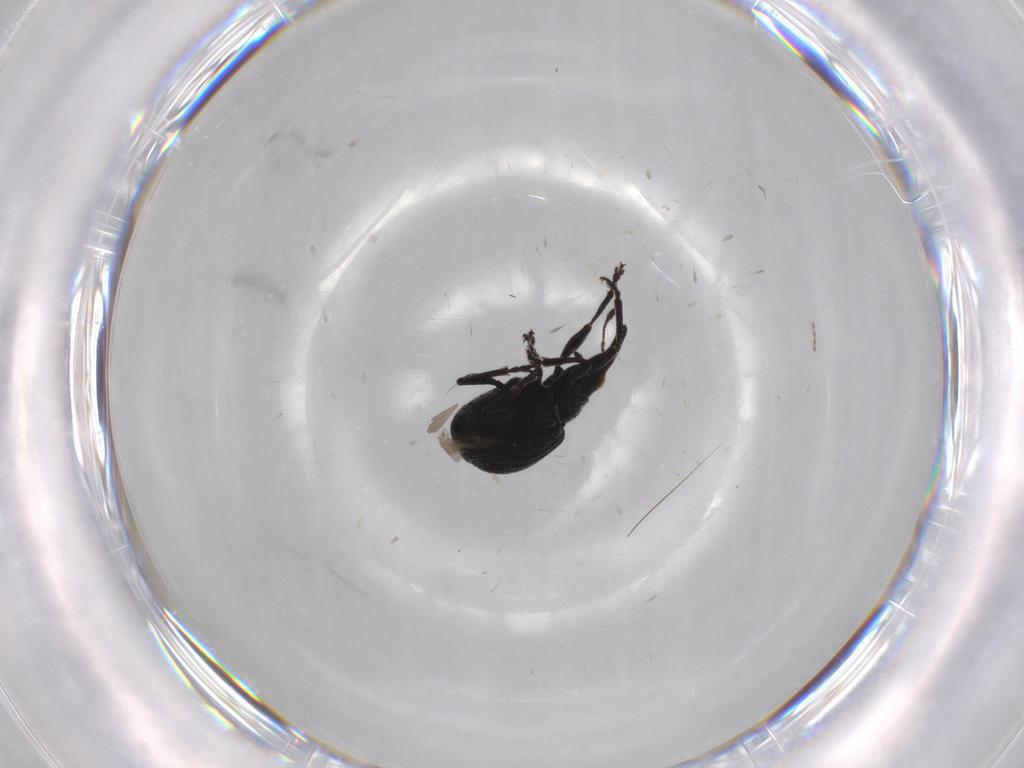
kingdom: Animalia
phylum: Arthropoda
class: Insecta
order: Coleoptera
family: Brentidae
